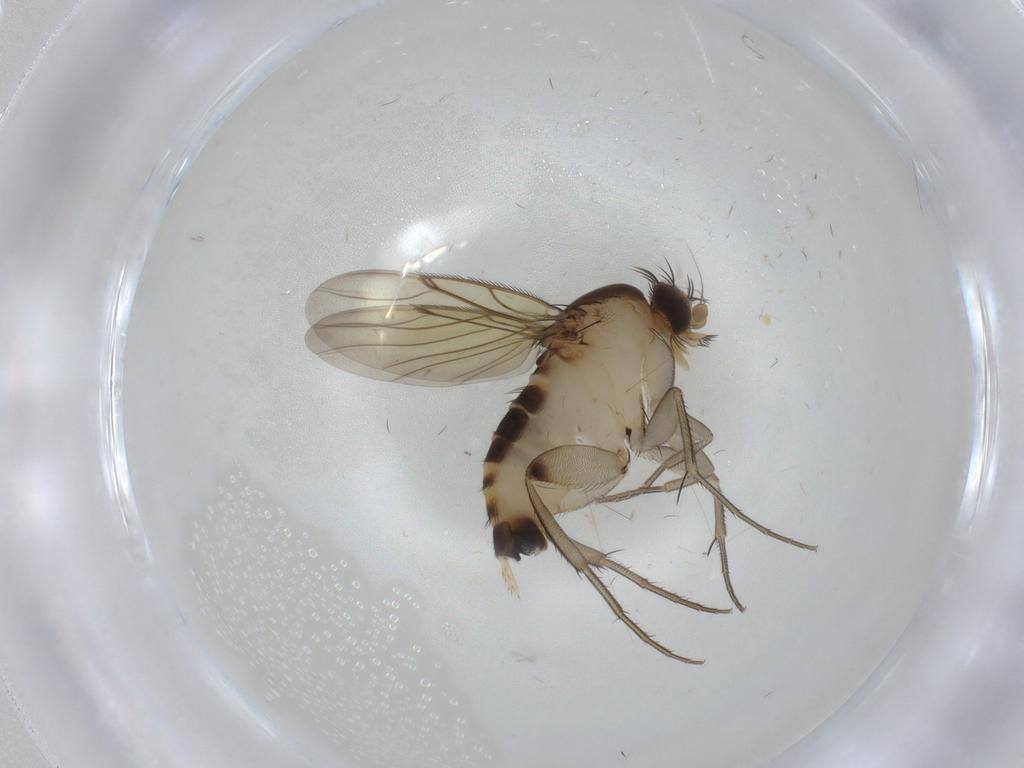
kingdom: Animalia
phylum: Arthropoda
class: Insecta
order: Diptera
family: Phoridae
